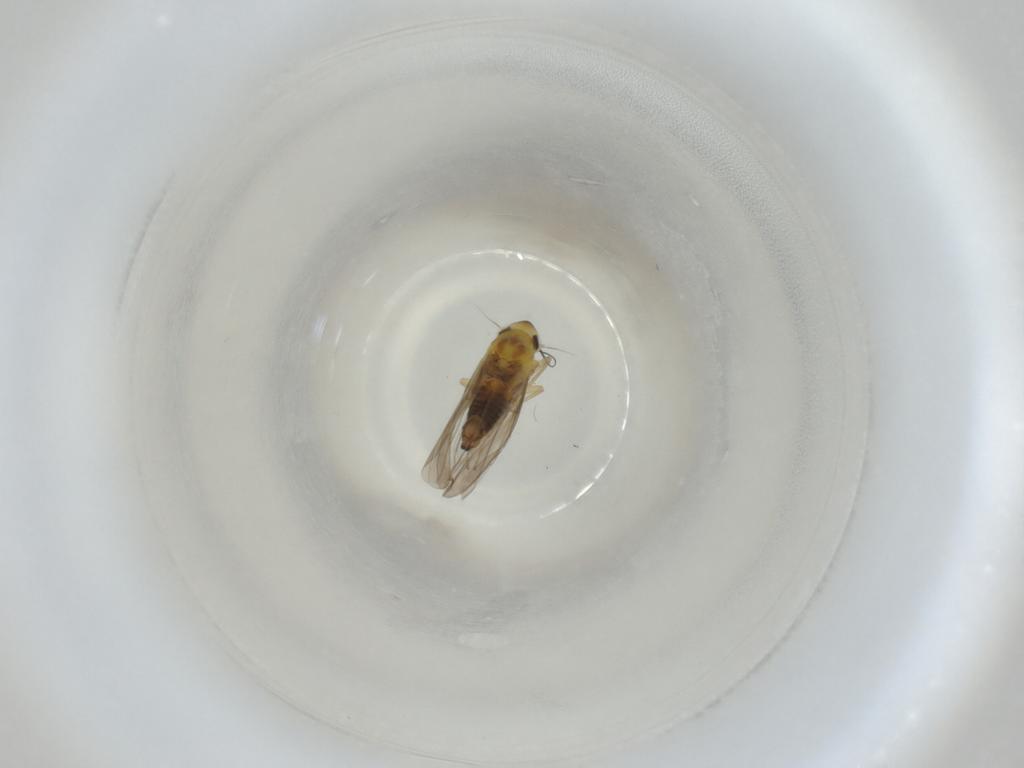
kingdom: Animalia
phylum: Arthropoda
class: Insecta
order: Hemiptera
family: Cicadellidae
